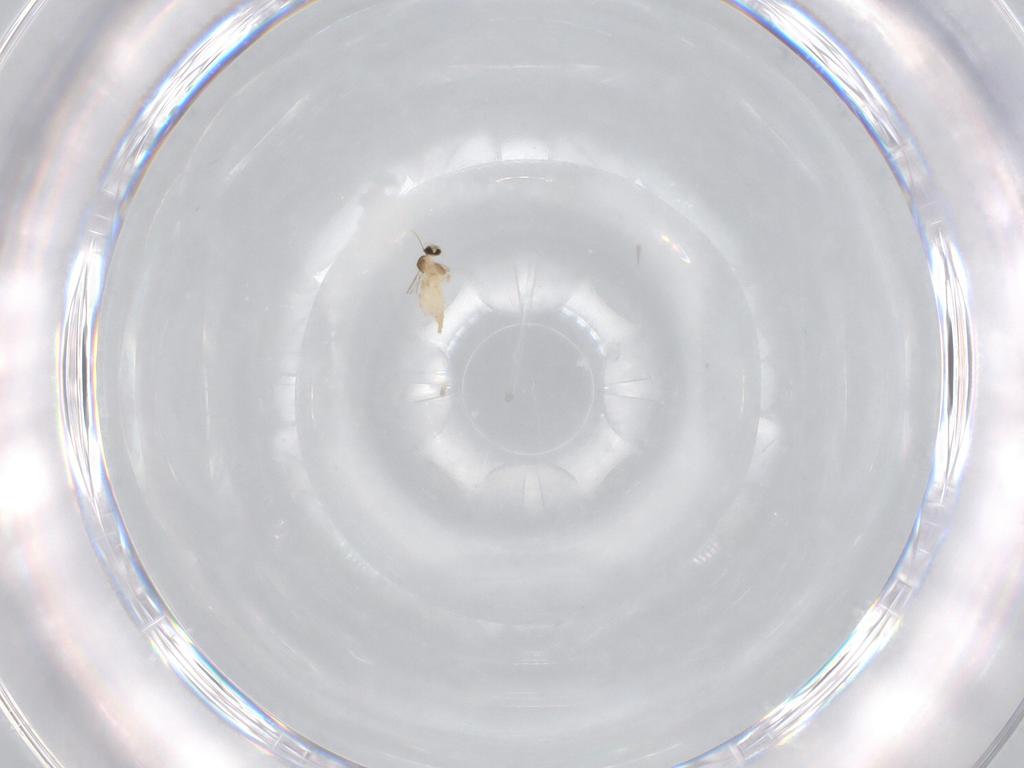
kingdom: Animalia
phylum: Arthropoda
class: Insecta
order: Diptera
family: Cecidomyiidae
